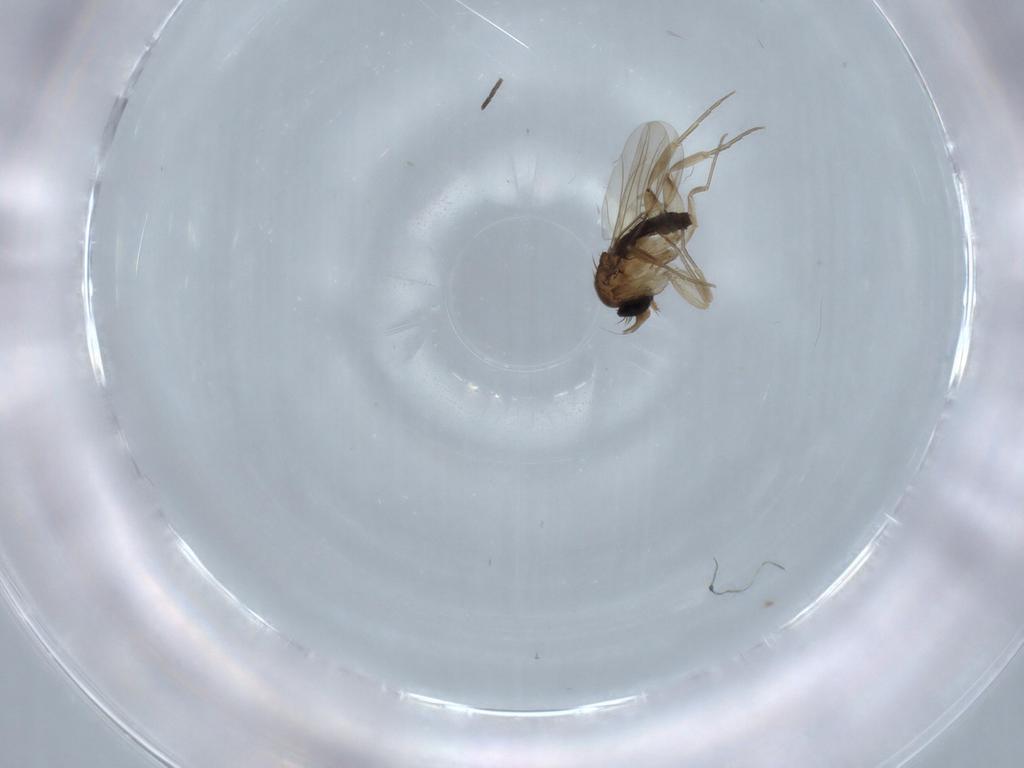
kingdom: Animalia
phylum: Arthropoda
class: Insecta
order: Diptera
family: Phoridae
